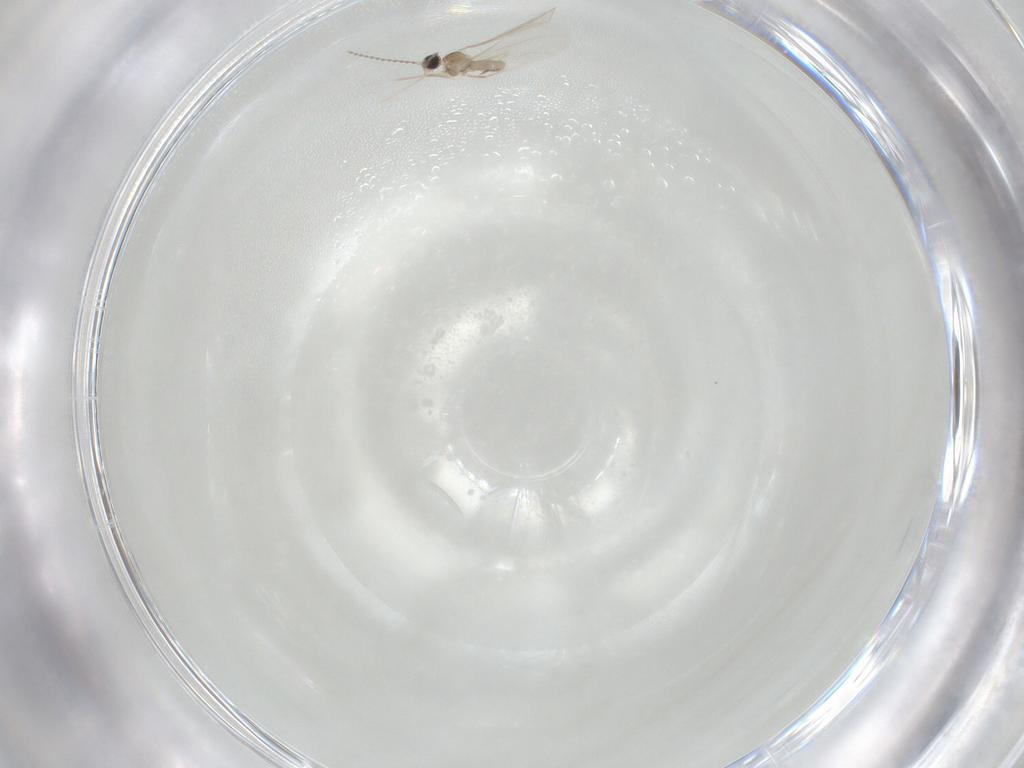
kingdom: Animalia
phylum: Arthropoda
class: Insecta
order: Diptera
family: Cecidomyiidae
